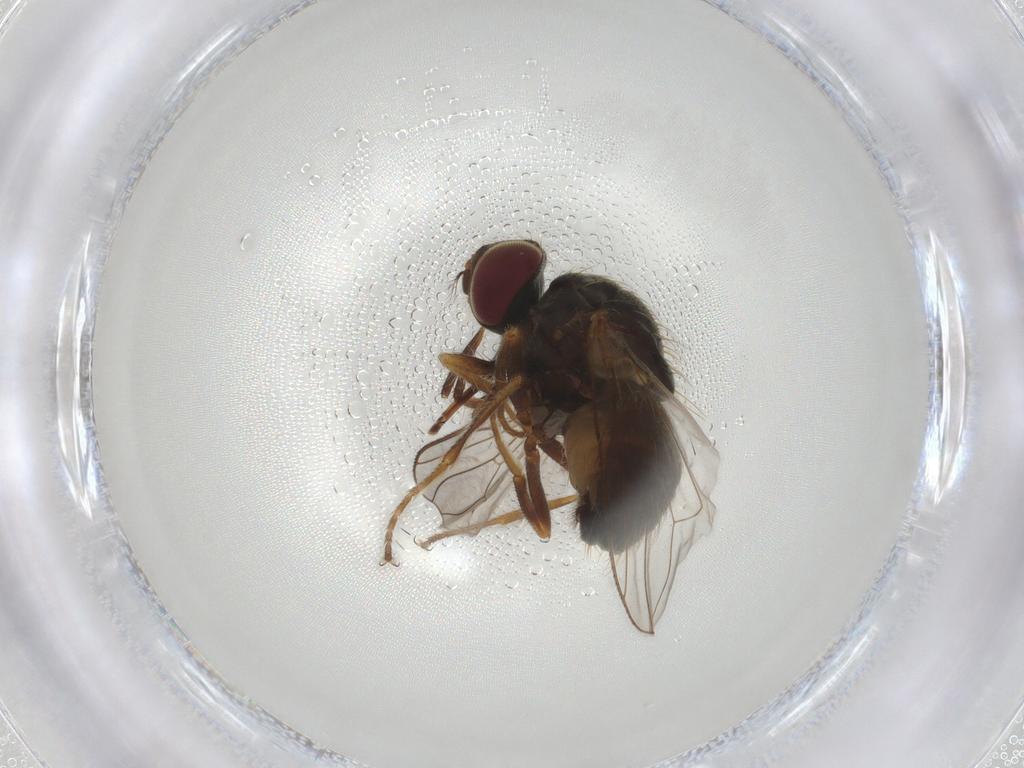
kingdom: Animalia
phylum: Arthropoda
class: Insecta
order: Diptera
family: Muscidae
